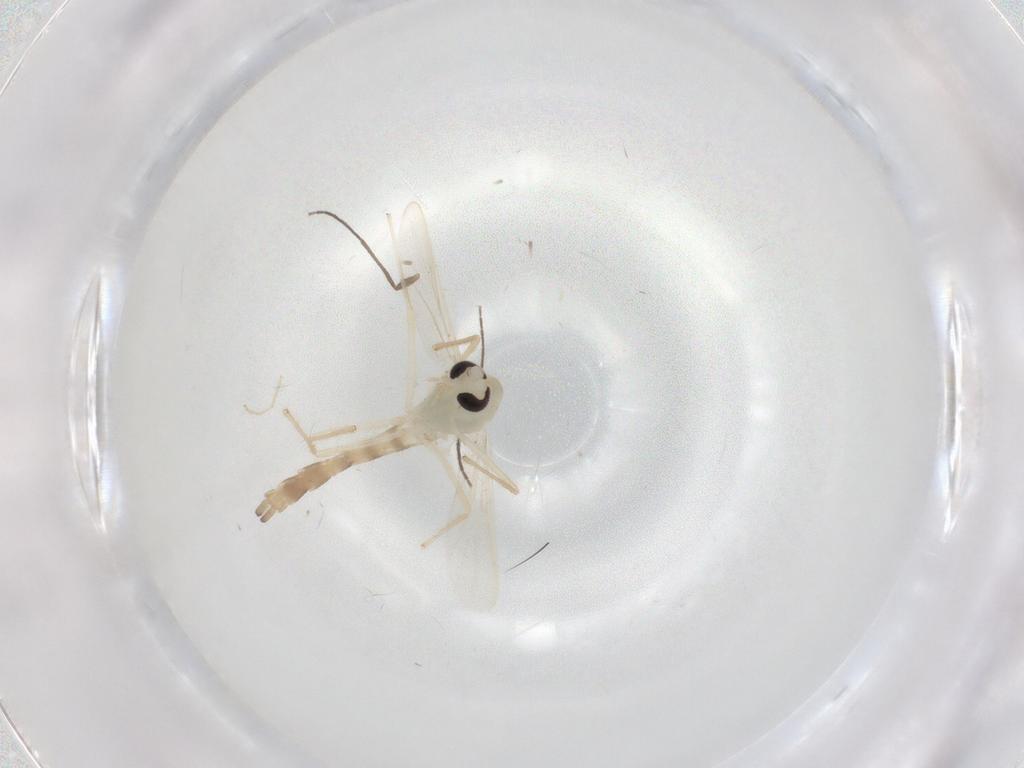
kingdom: Animalia
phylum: Arthropoda
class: Insecta
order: Diptera
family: Chironomidae
